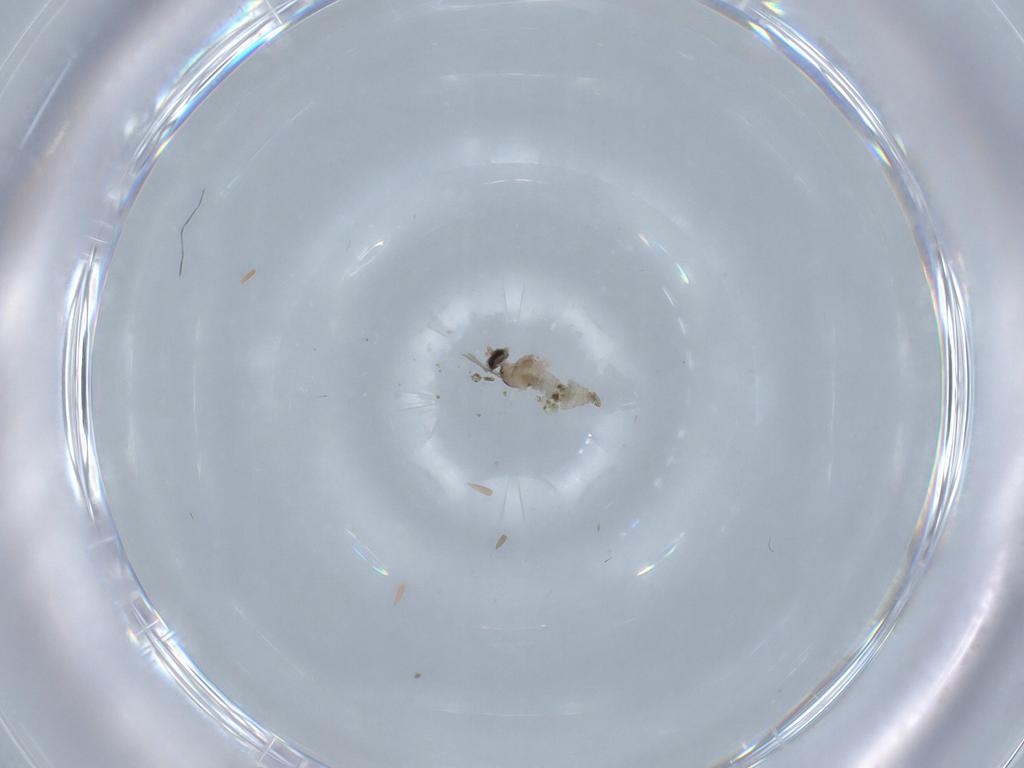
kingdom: Animalia
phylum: Arthropoda
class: Insecta
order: Diptera
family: Cecidomyiidae
